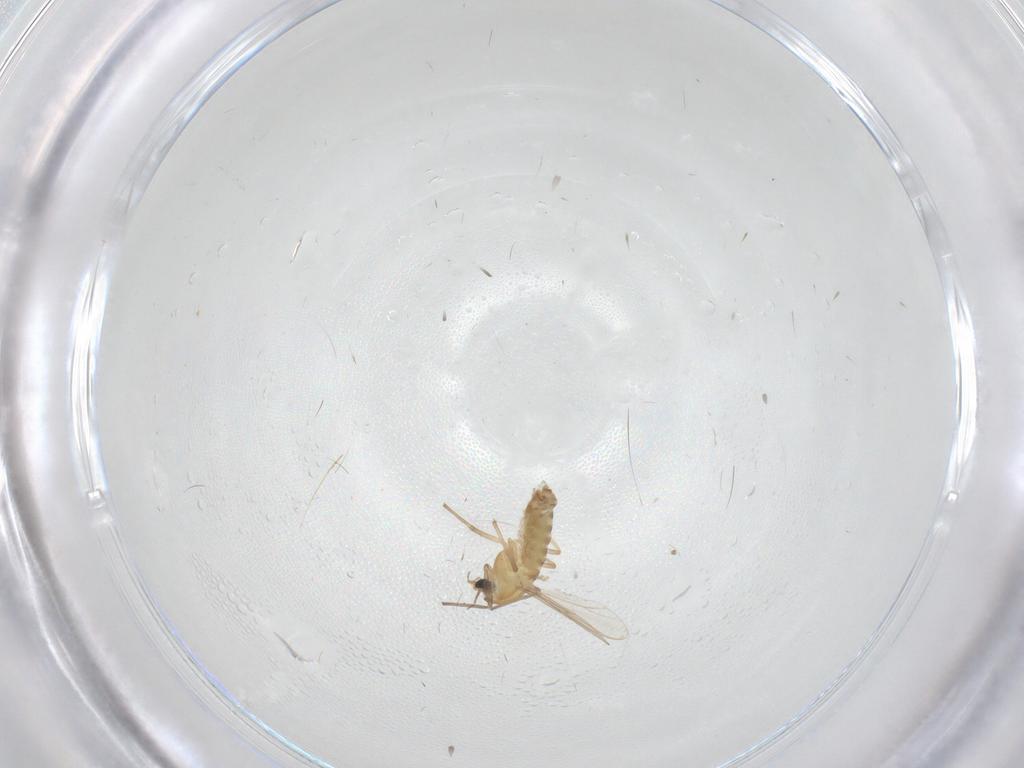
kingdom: Animalia
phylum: Arthropoda
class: Insecta
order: Diptera
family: Chironomidae
